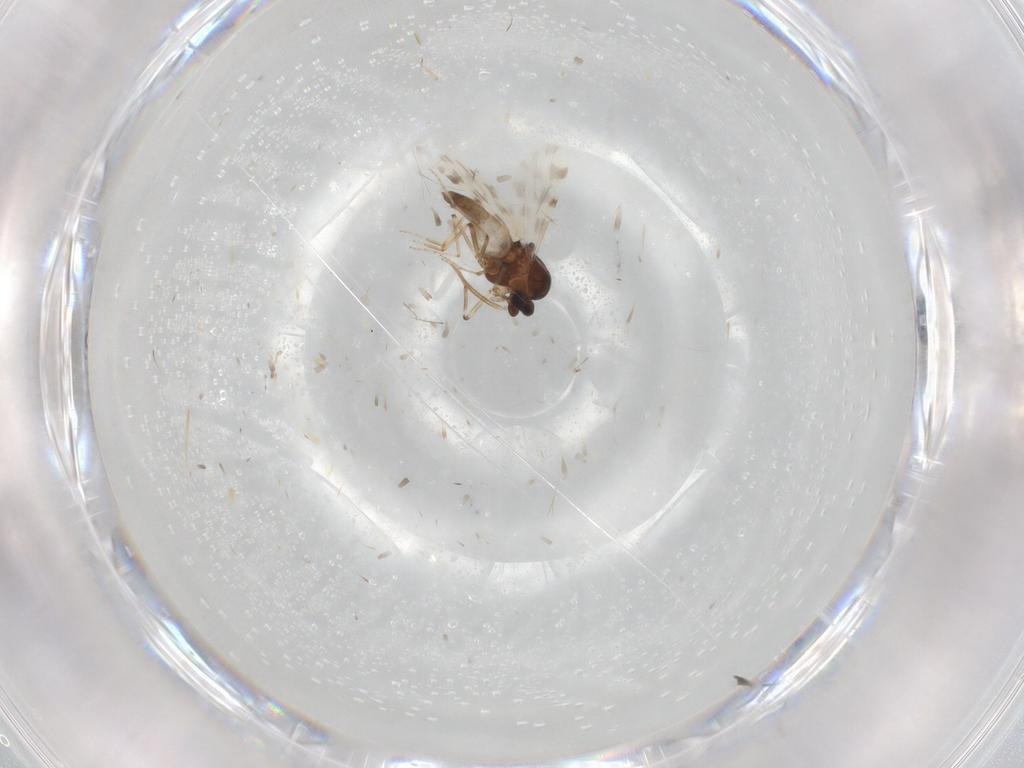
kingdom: Animalia
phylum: Arthropoda
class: Insecta
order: Diptera
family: Ceratopogonidae
